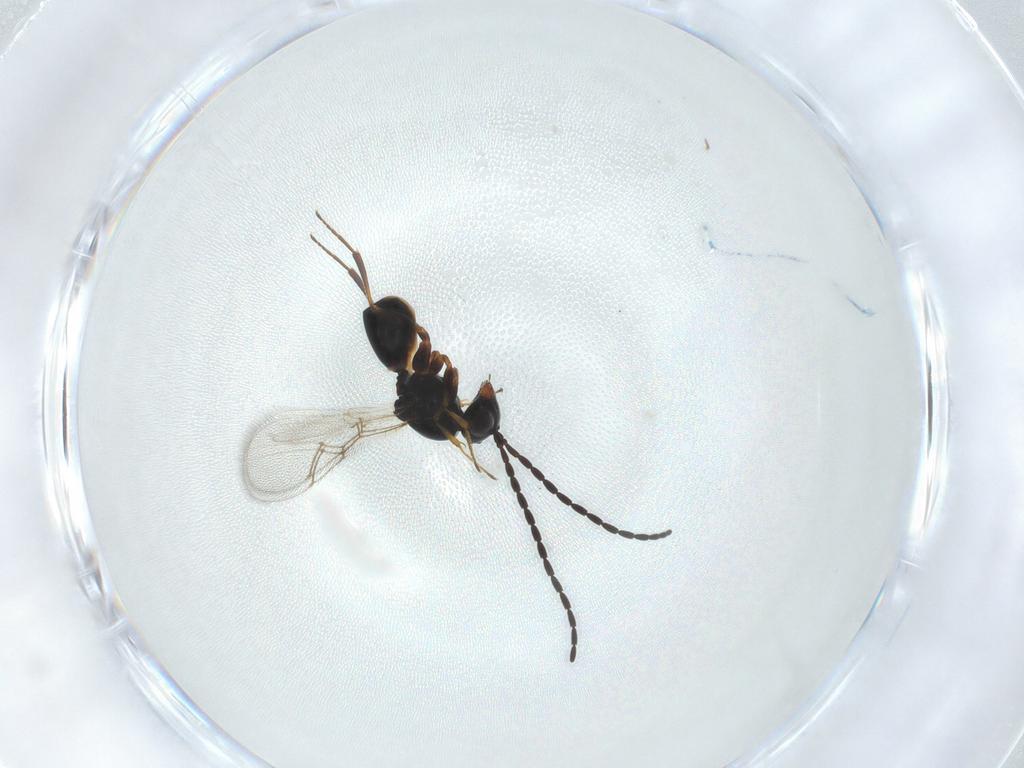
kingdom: Animalia
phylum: Arthropoda
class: Insecta
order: Hymenoptera
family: Figitidae
